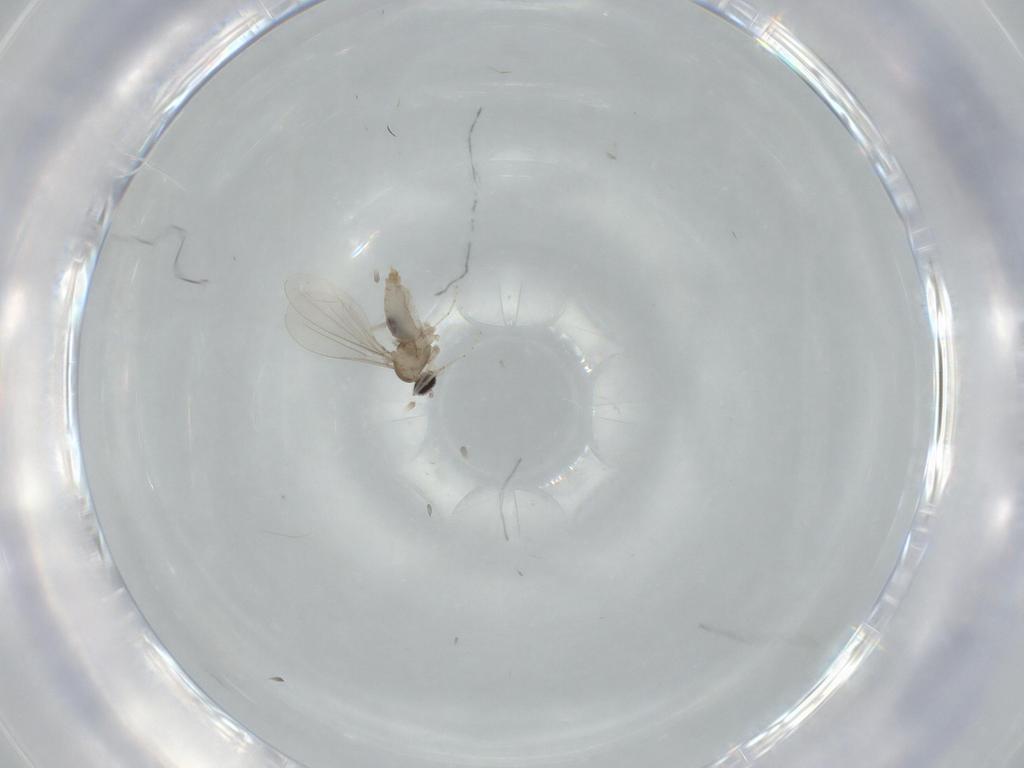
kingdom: Animalia
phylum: Arthropoda
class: Insecta
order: Diptera
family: Cecidomyiidae
